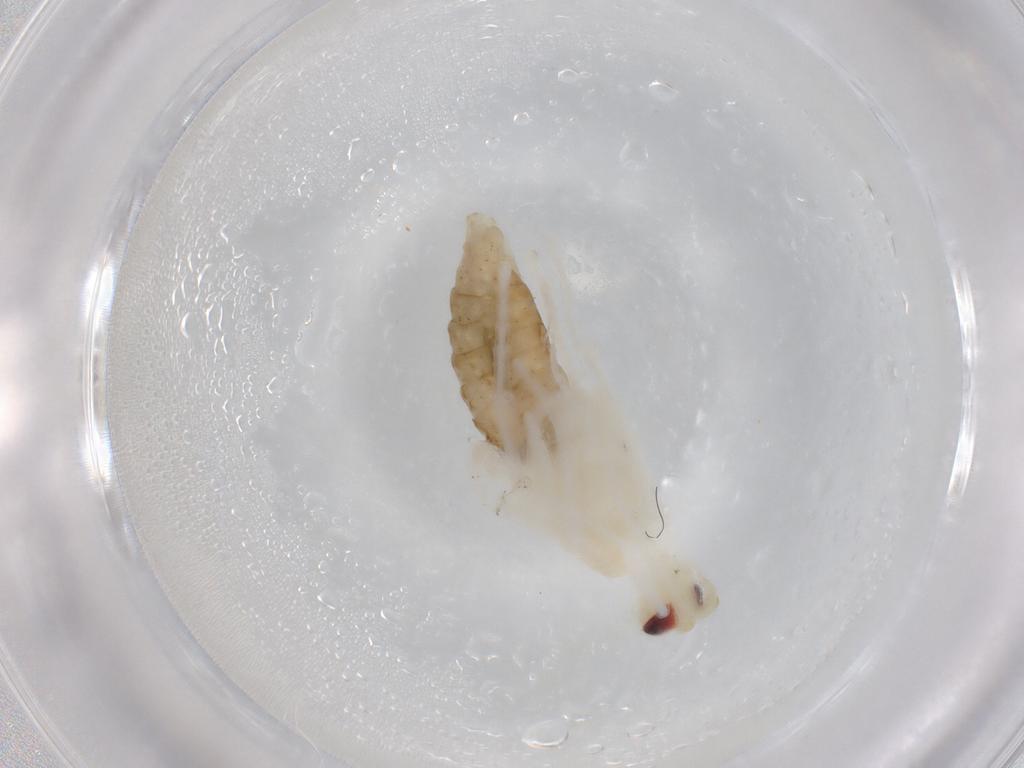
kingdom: Animalia
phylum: Arthropoda
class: Insecta
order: Hymenoptera
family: Ichneumonidae
